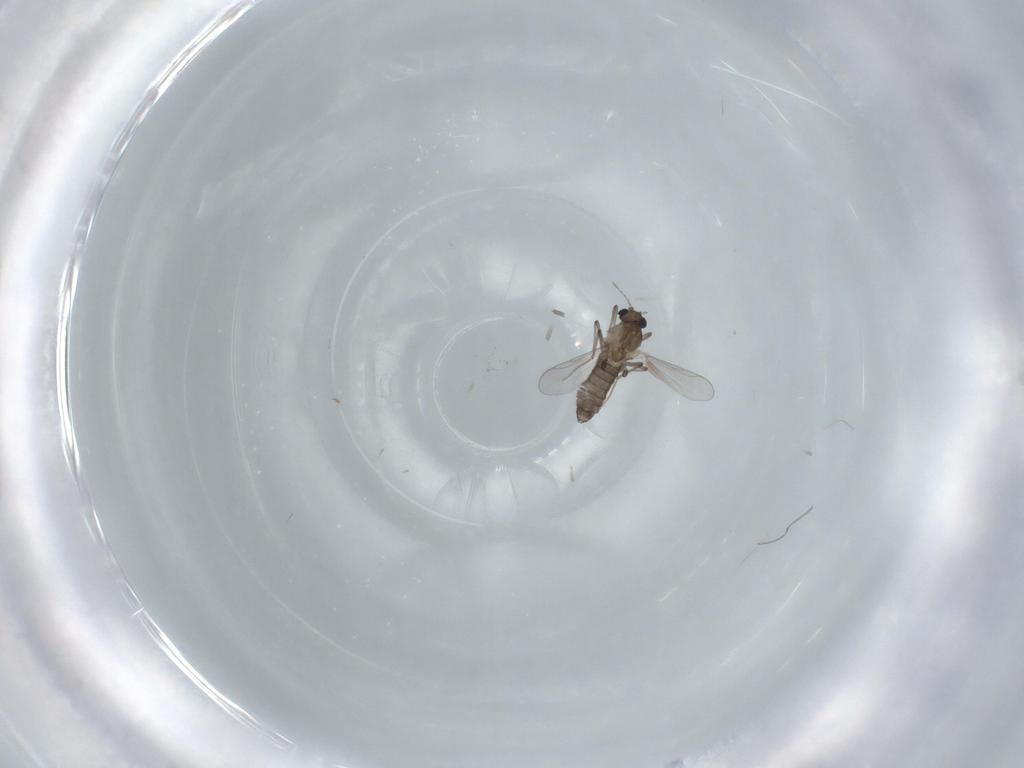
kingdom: Animalia
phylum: Arthropoda
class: Insecta
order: Diptera
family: Chironomidae
